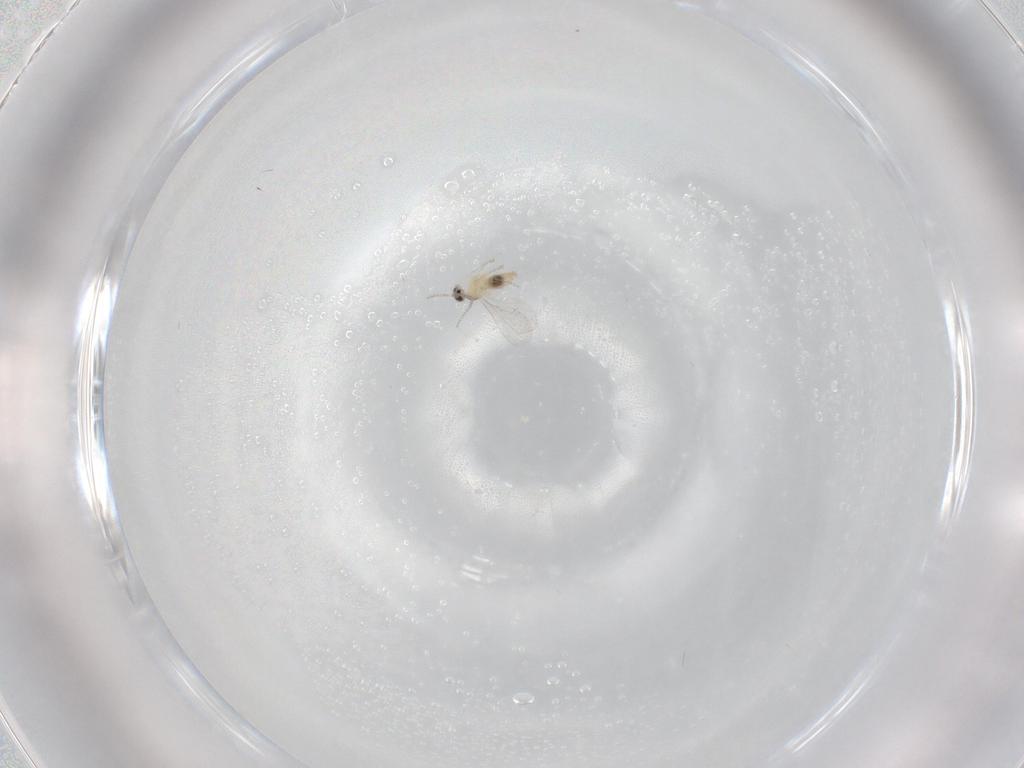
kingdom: Animalia
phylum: Arthropoda
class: Insecta
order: Diptera
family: Cecidomyiidae
